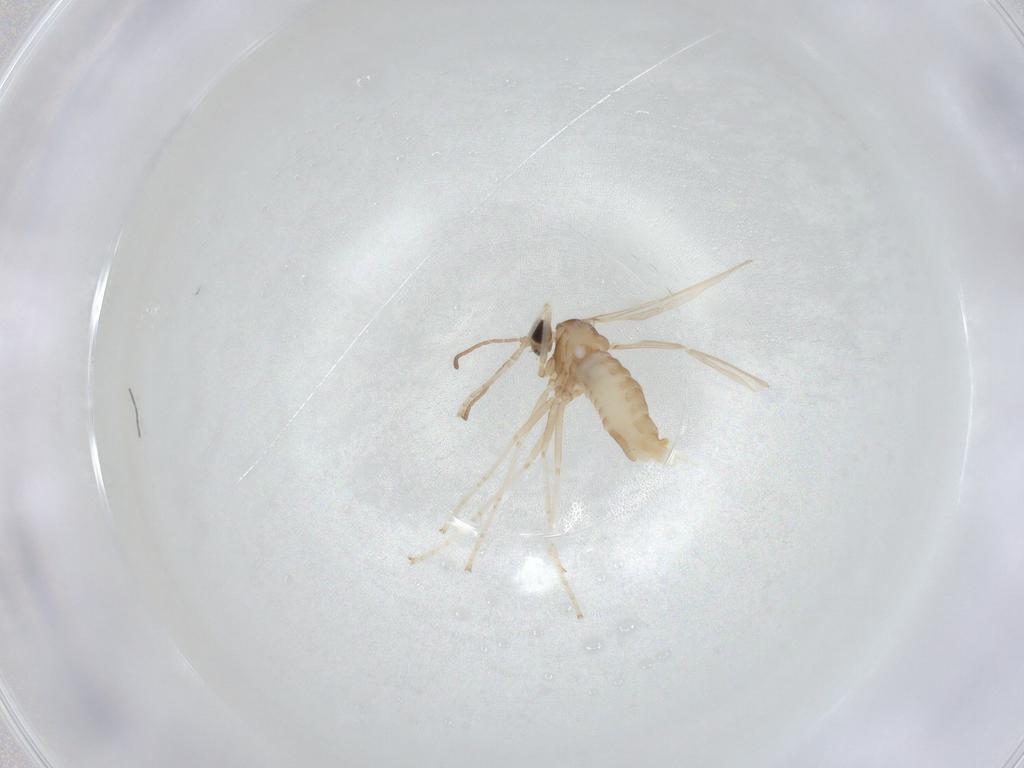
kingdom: Animalia
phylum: Arthropoda
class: Insecta
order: Diptera
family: Cecidomyiidae
